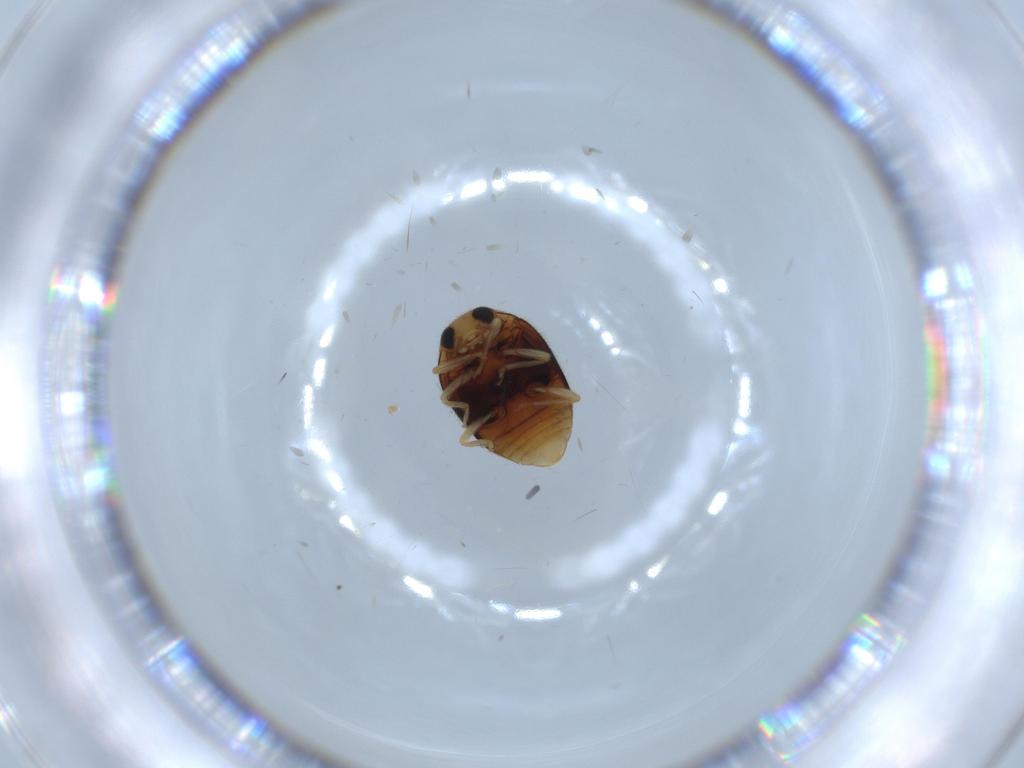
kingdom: Animalia
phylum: Arthropoda
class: Insecta
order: Coleoptera
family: Coccinellidae
